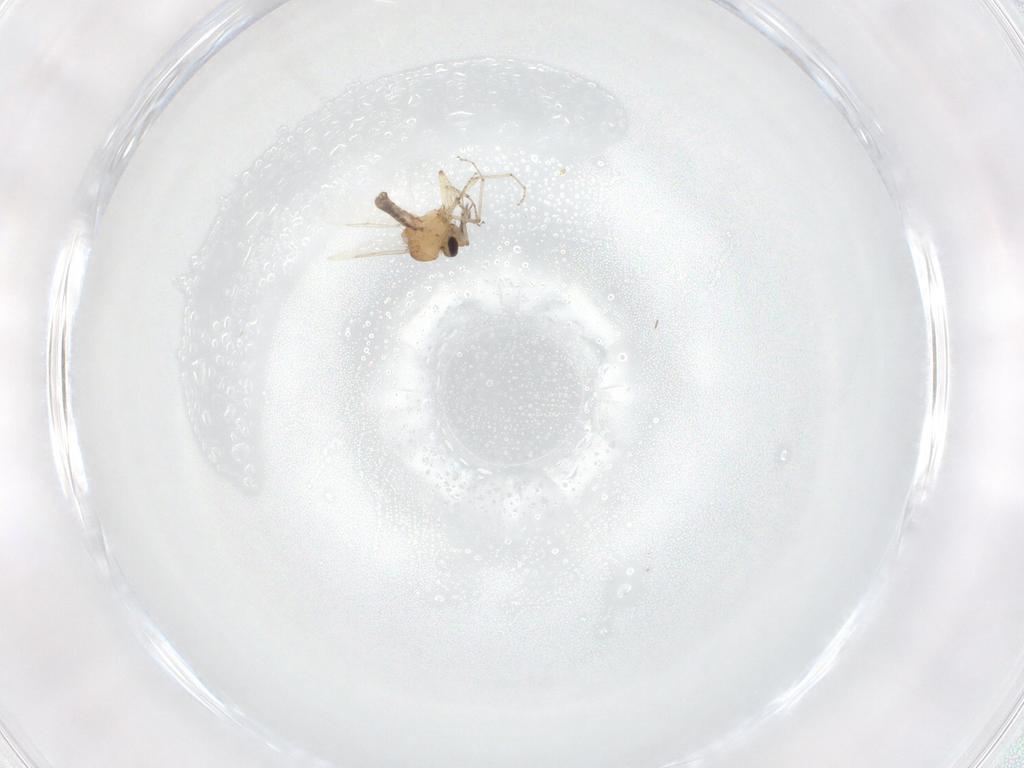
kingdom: Animalia
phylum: Arthropoda
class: Insecta
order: Diptera
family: Ceratopogonidae
